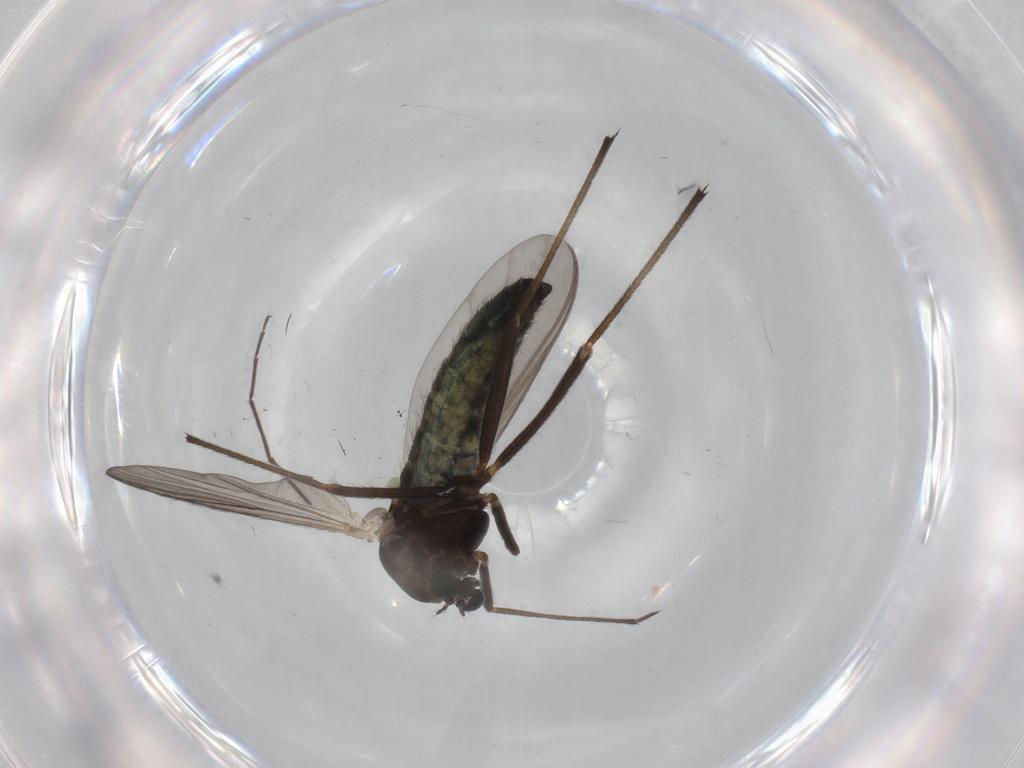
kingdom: Animalia
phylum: Arthropoda
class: Insecta
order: Diptera
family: Chironomidae
